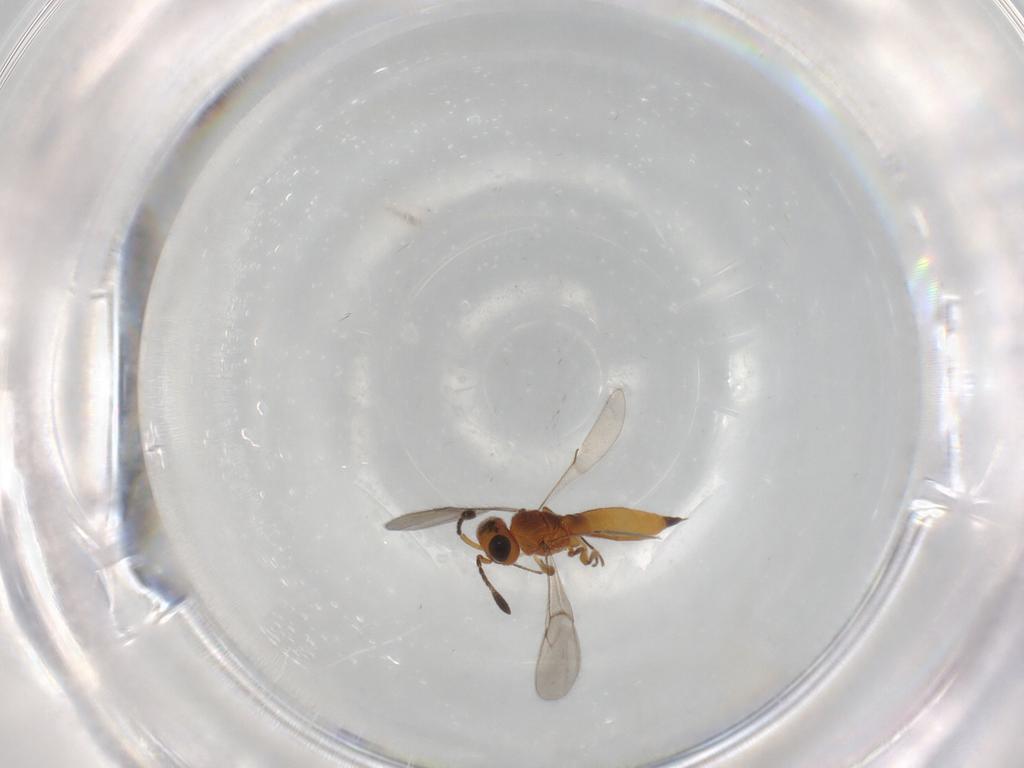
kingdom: Animalia
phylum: Arthropoda
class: Insecta
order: Hymenoptera
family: Scelionidae
